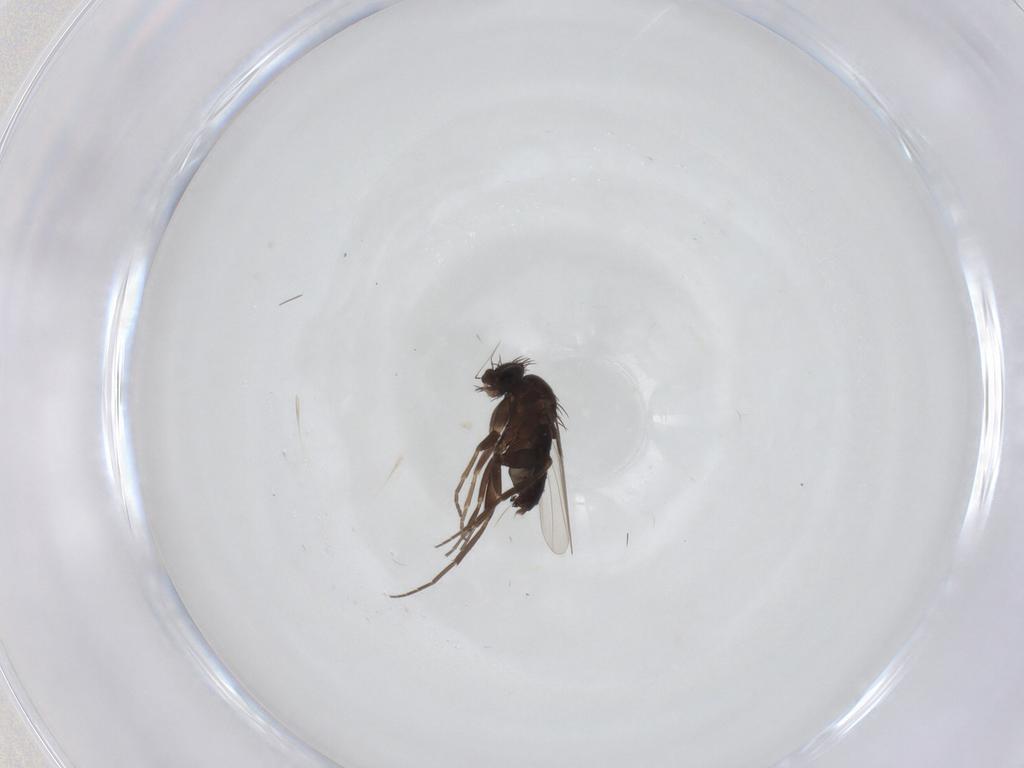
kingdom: Animalia
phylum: Arthropoda
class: Insecta
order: Diptera
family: Phoridae
